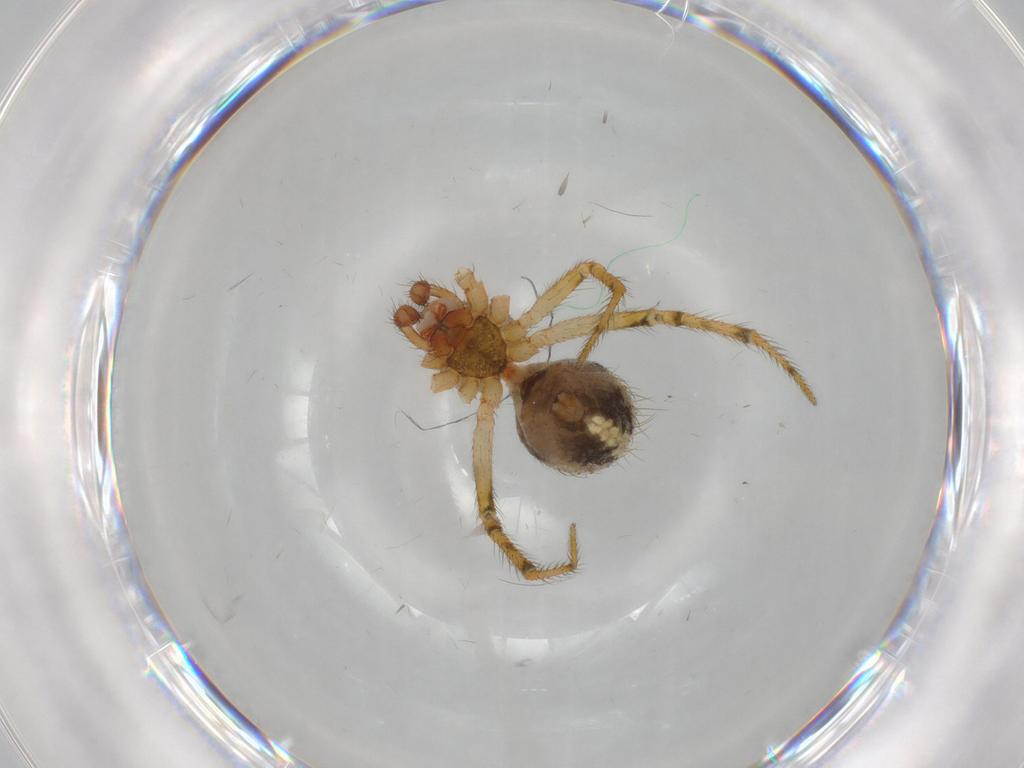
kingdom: Animalia
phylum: Arthropoda
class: Arachnida
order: Araneae
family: Theridiidae
